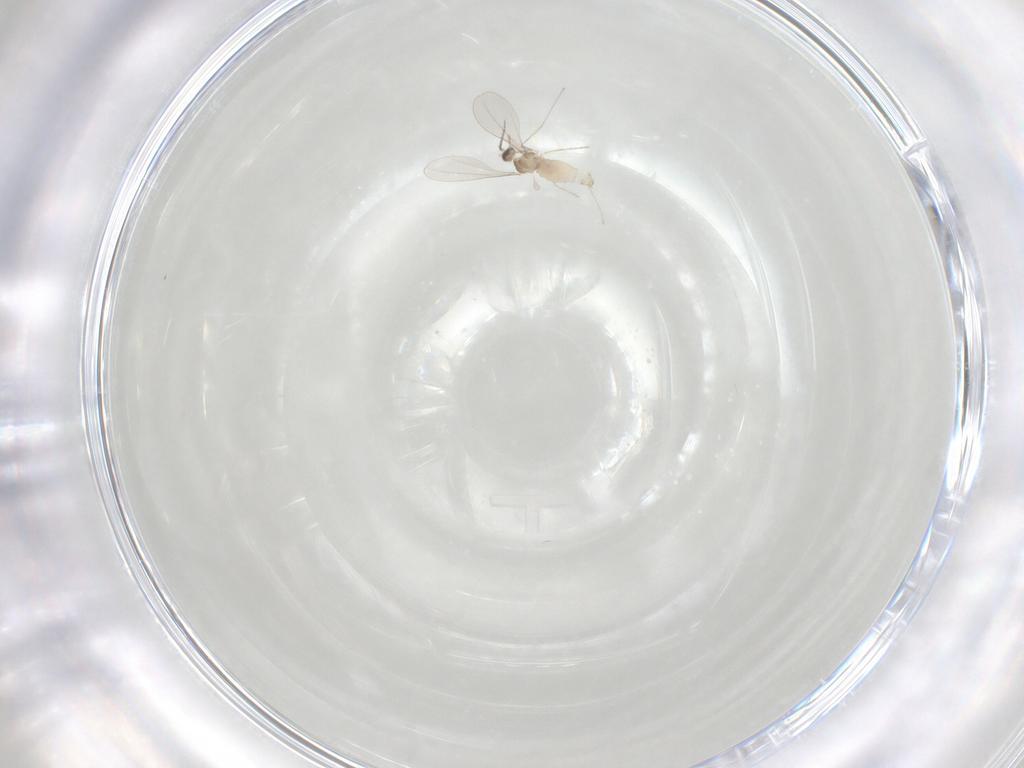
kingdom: Animalia
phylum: Arthropoda
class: Insecta
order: Diptera
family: Cecidomyiidae
